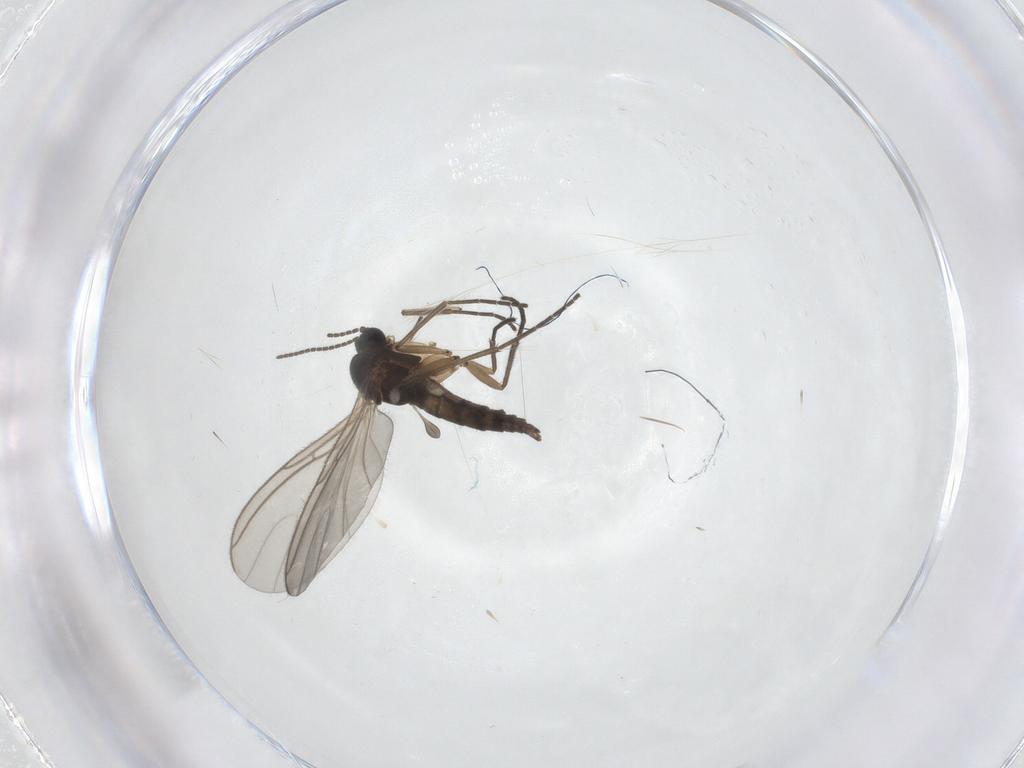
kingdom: Animalia
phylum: Arthropoda
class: Insecta
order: Diptera
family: Sciaridae
